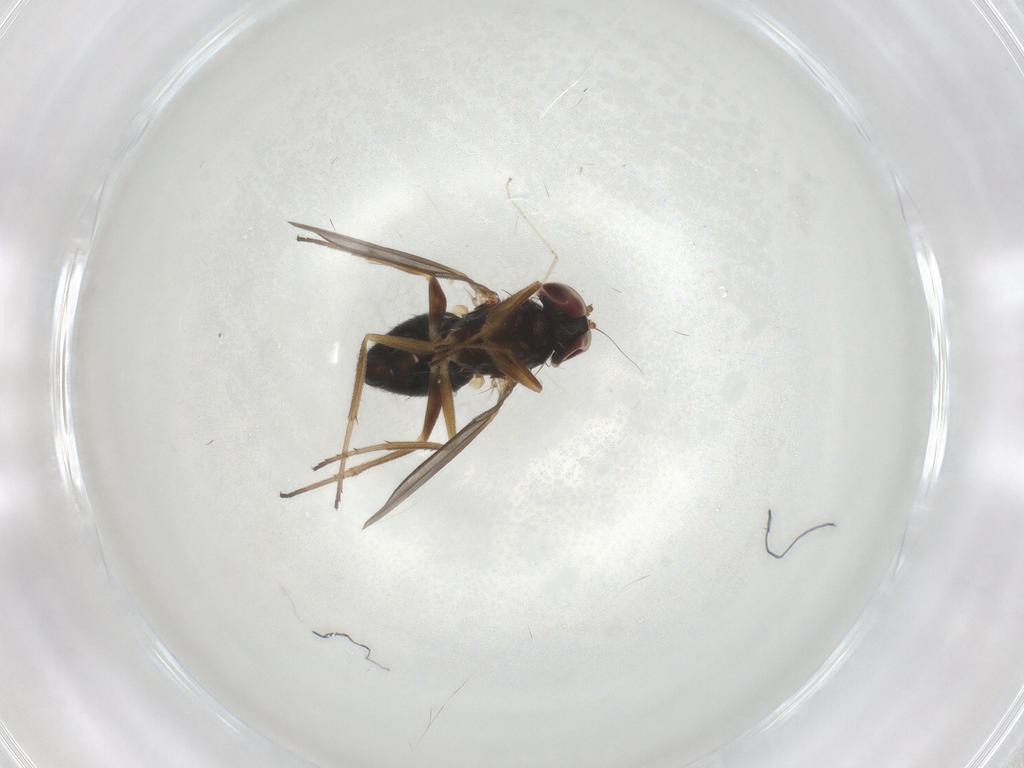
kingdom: Animalia
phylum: Arthropoda
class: Insecta
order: Diptera
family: Dolichopodidae
